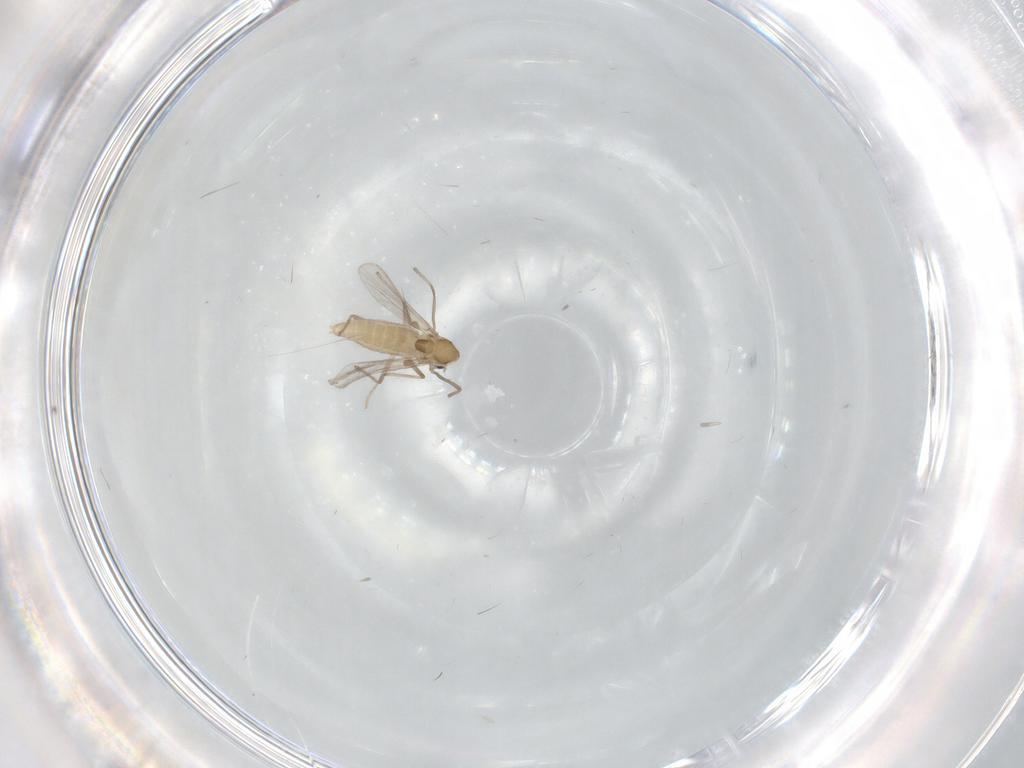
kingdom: Animalia
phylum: Arthropoda
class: Insecta
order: Diptera
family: Chironomidae
